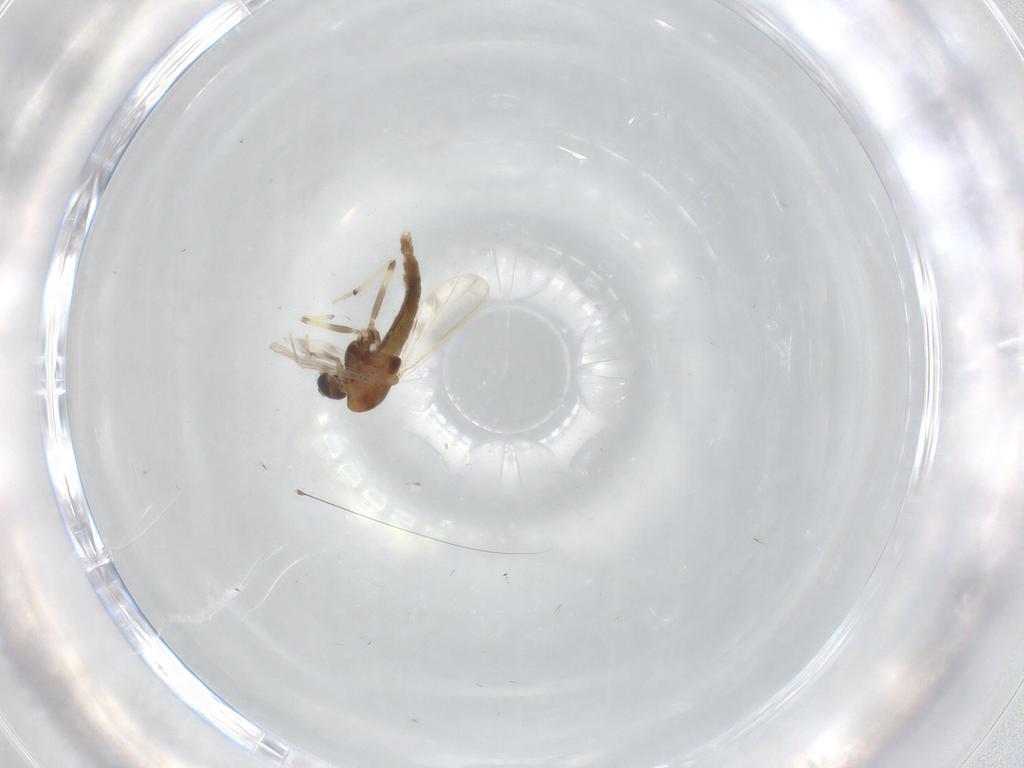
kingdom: Animalia
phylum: Arthropoda
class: Insecta
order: Diptera
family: Chironomidae
